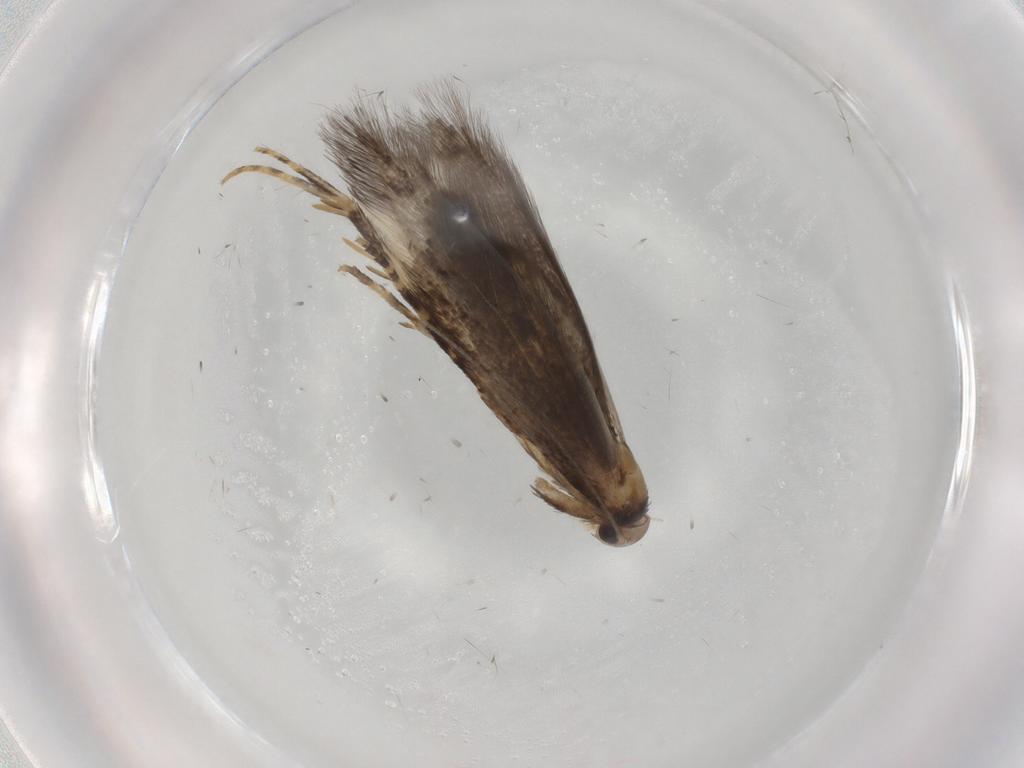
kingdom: Animalia
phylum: Arthropoda
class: Insecta
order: Lepidoptera
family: Elachistidae
